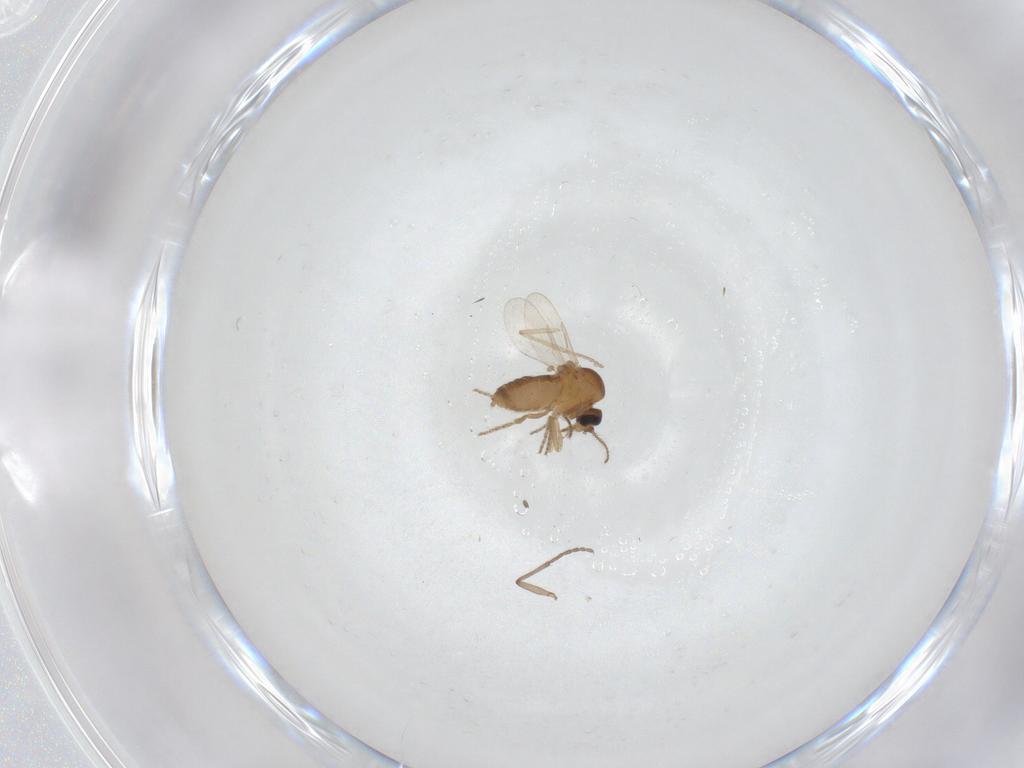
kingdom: Animalia
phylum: Arthropoda
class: Insecta
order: Diptera
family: Ceratopogonidae
